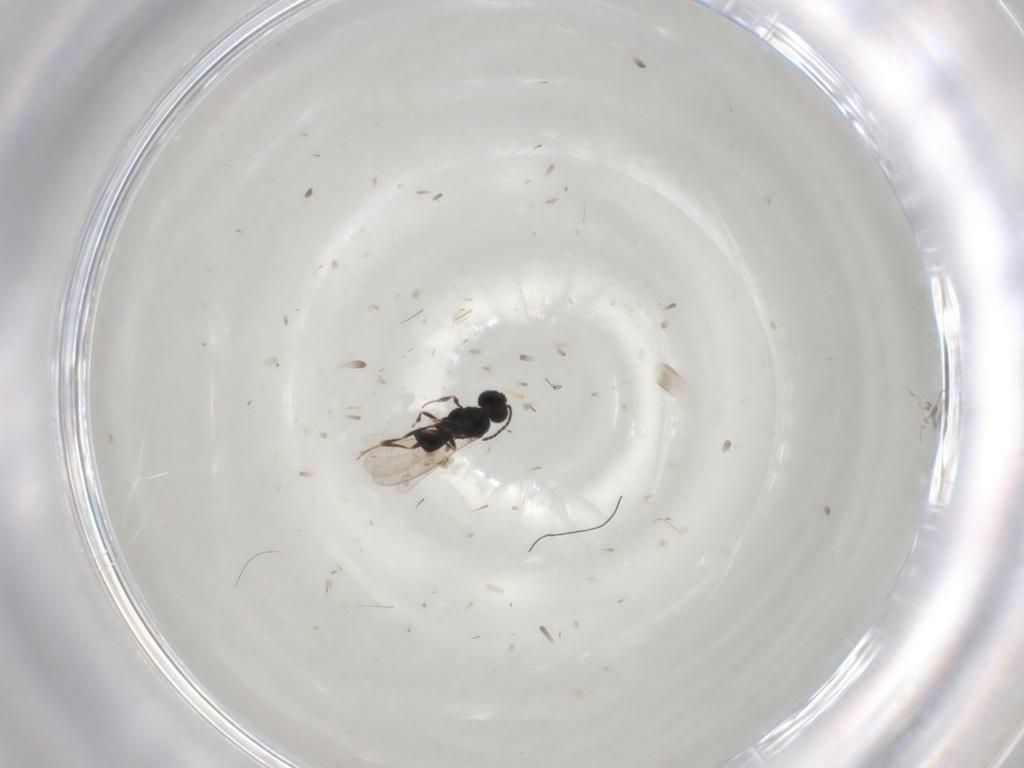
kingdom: Animalia
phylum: Arthropoda
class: Insecta
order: Hymenoptera
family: Scelionidae
